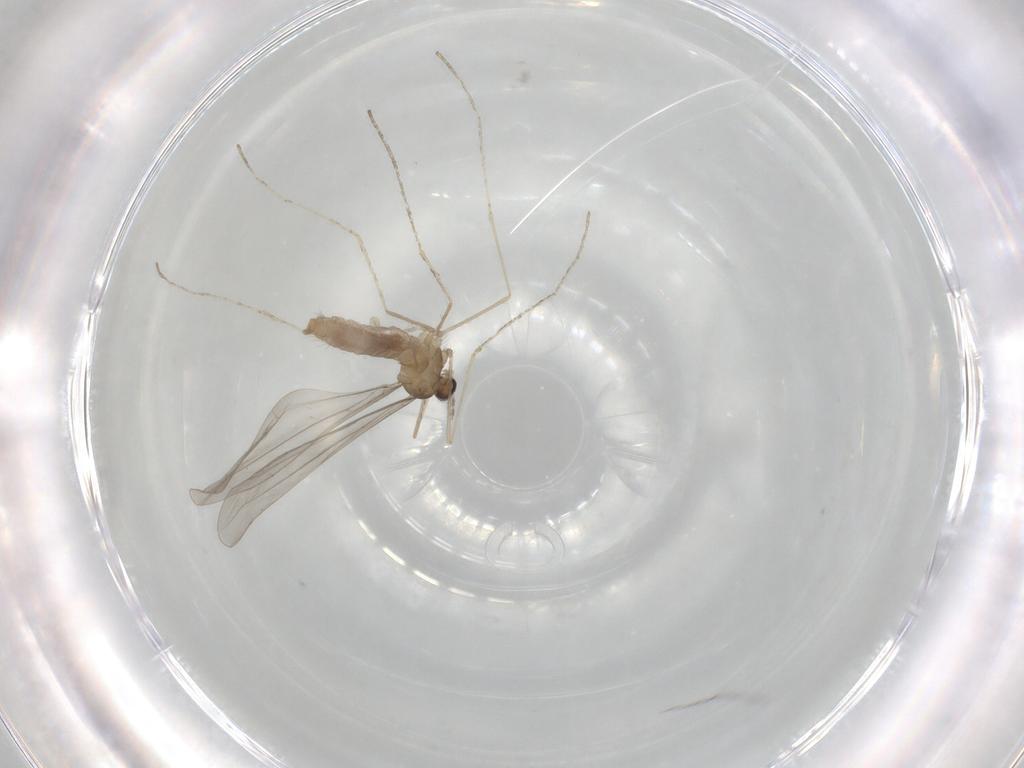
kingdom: Animalia
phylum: Arthropoda
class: Insecta
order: Diptera
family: Cecidomyiidae
